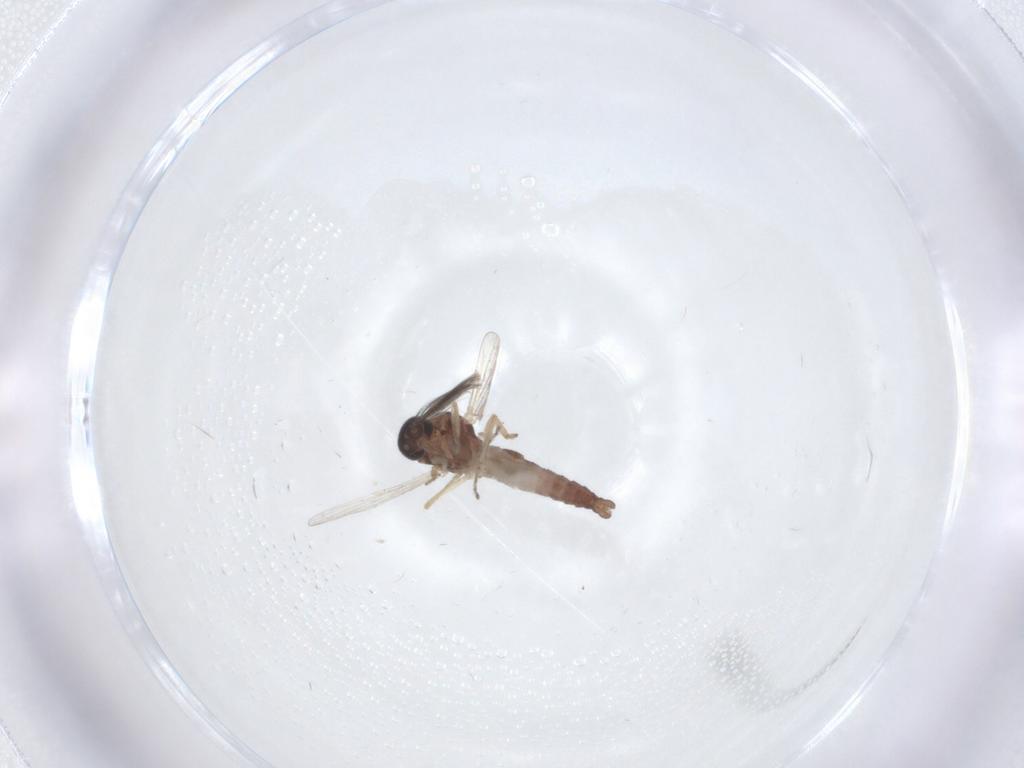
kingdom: Animalia
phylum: Arthropoda
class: Insecta
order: Diptera
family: Ceratopogonidae
